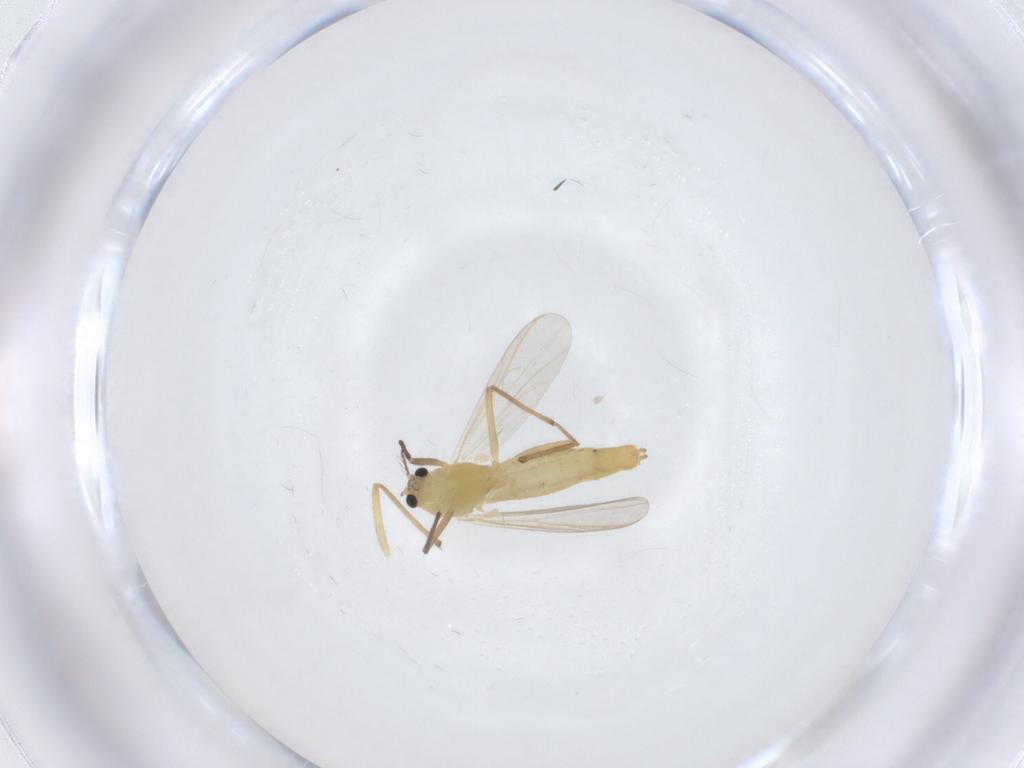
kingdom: Animalia
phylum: Arthropoda
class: Insecta
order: Diptera
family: Chironomidae
